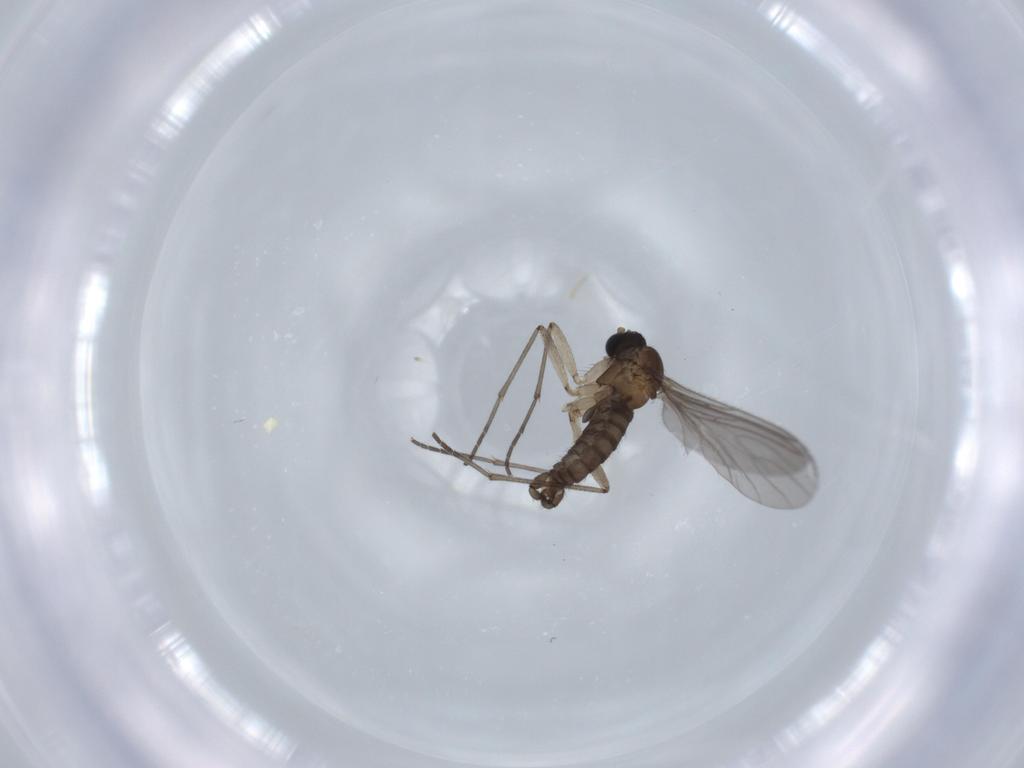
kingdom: Animalia
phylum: Arthropoda
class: Insecta
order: Diptera
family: Sciaridae
